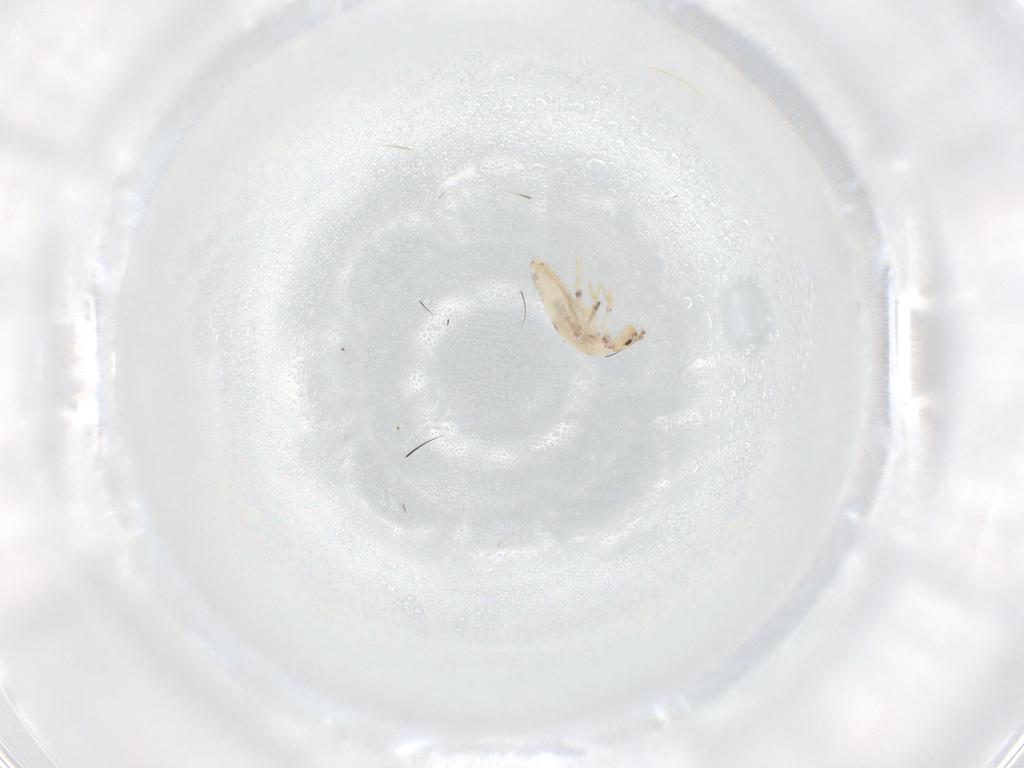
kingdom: Animalia
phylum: Arthropoda
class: Collembola
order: Entomobryomorpha
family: Entomobryidae
